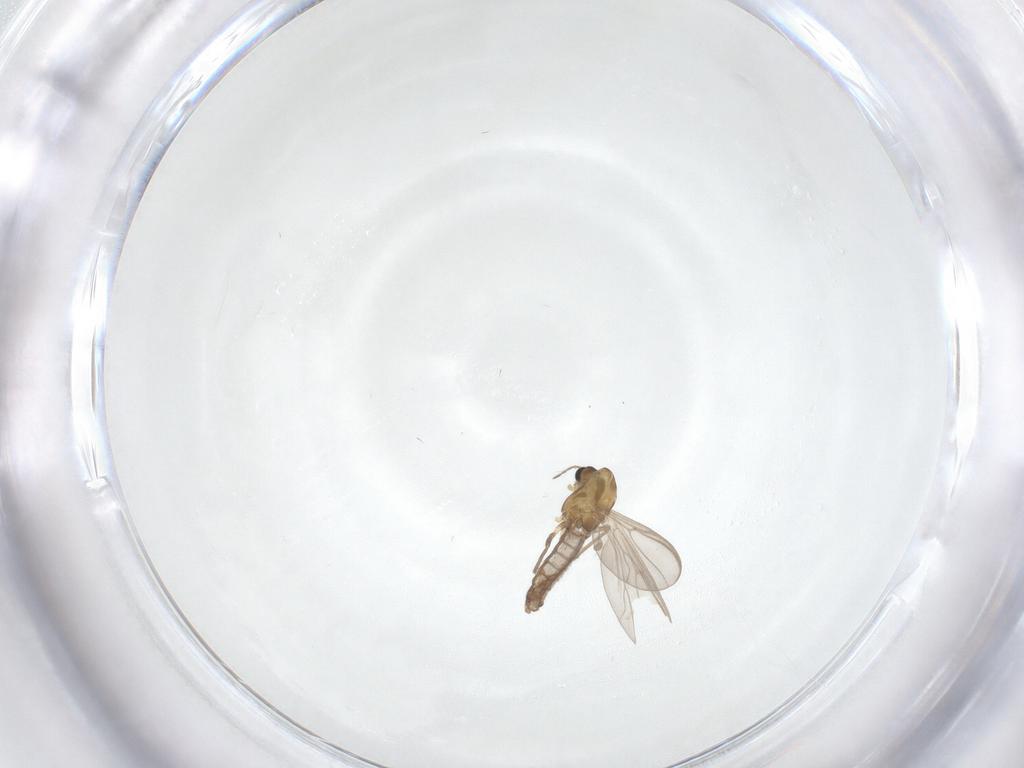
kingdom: Animalia
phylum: Arthropoda
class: Insecta
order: Diptera
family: Chironomidae
